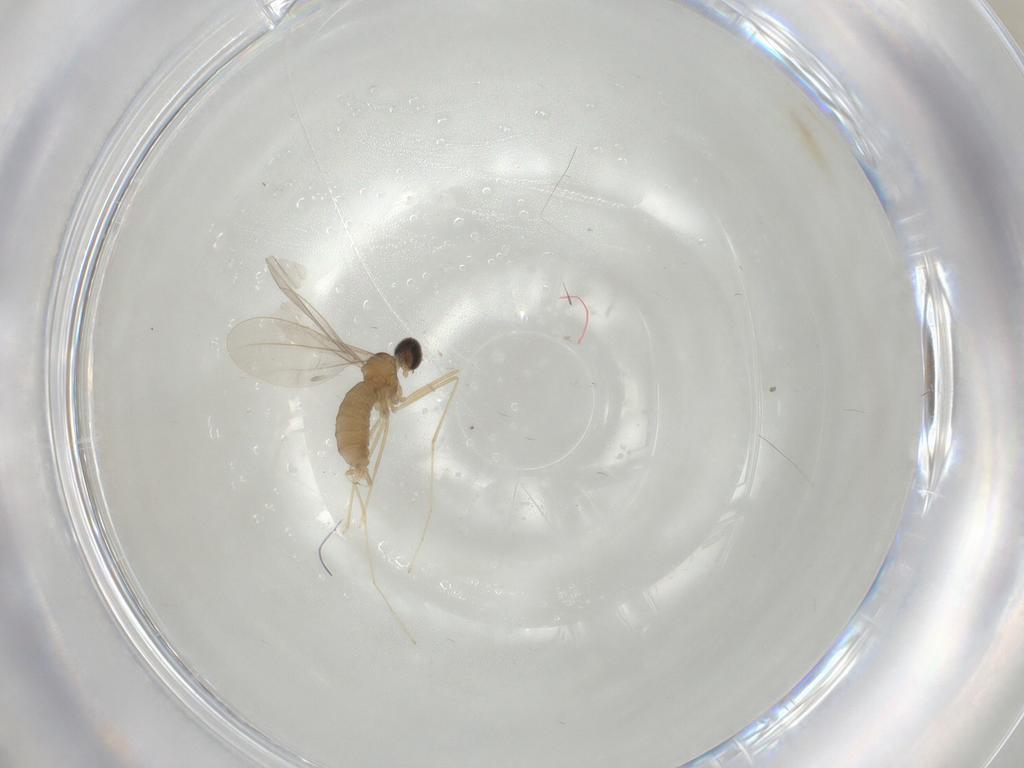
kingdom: Animalia
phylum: Arthropoda
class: Insecta
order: Diptera
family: Cecidomyiidae
